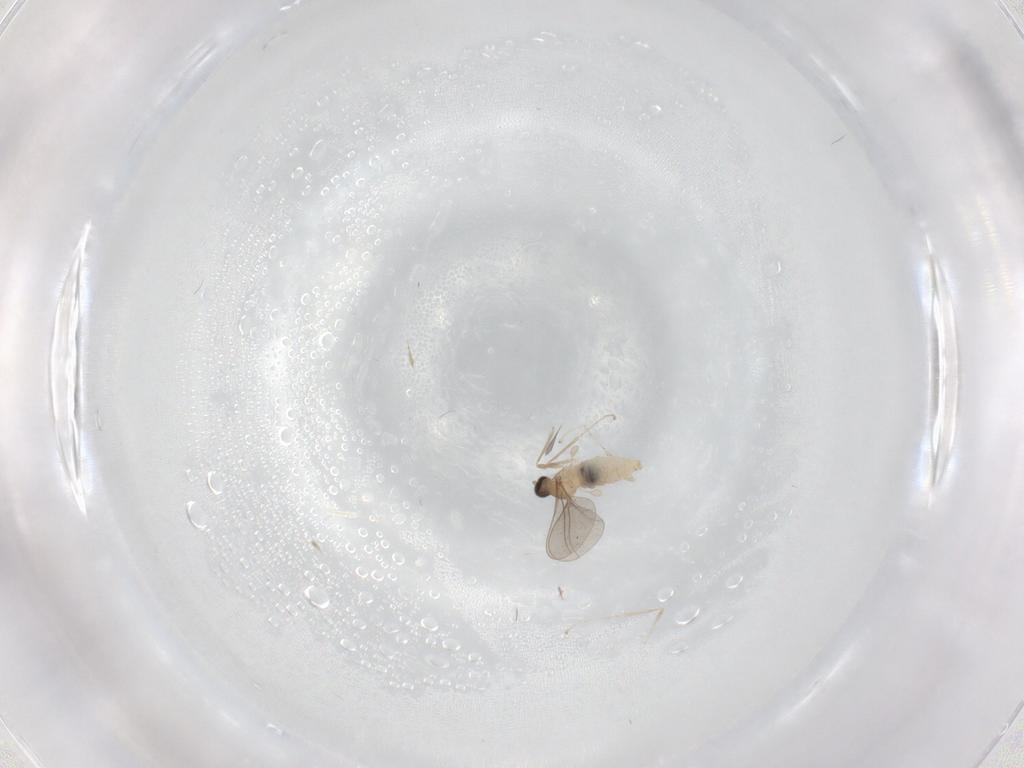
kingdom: Animalia
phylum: Arthropoda
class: Insecta
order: Diptera
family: Cecidomyiidae
